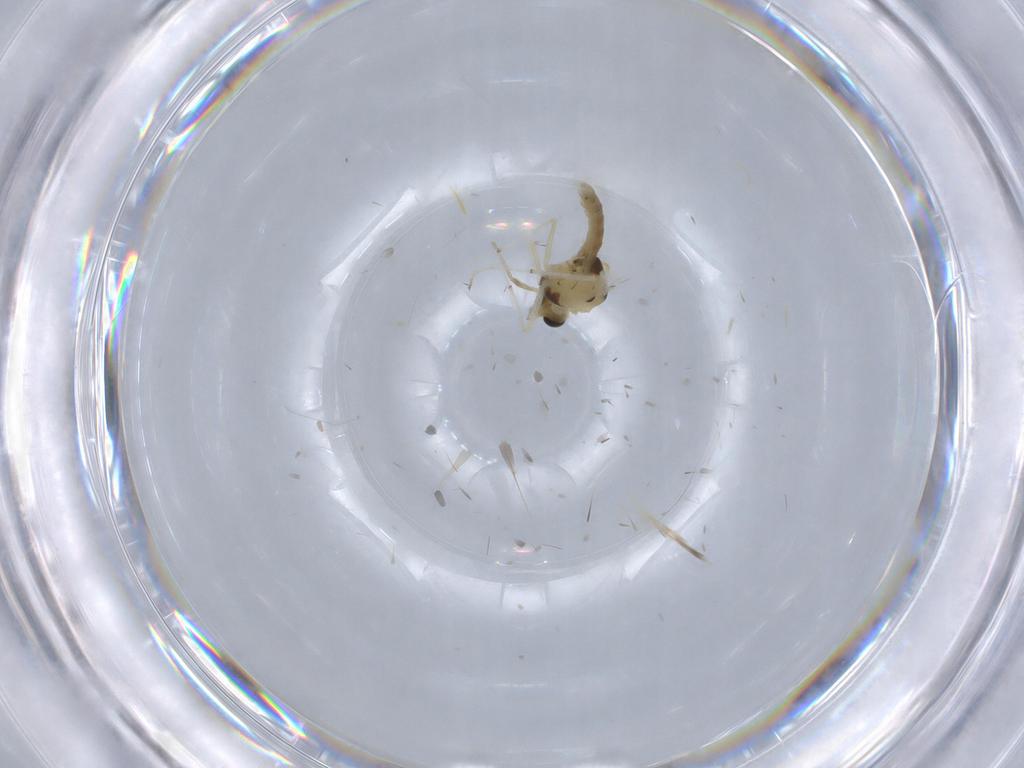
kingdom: Animalia
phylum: Arthropoda
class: Insecta
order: Diptera
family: Chironomidae
